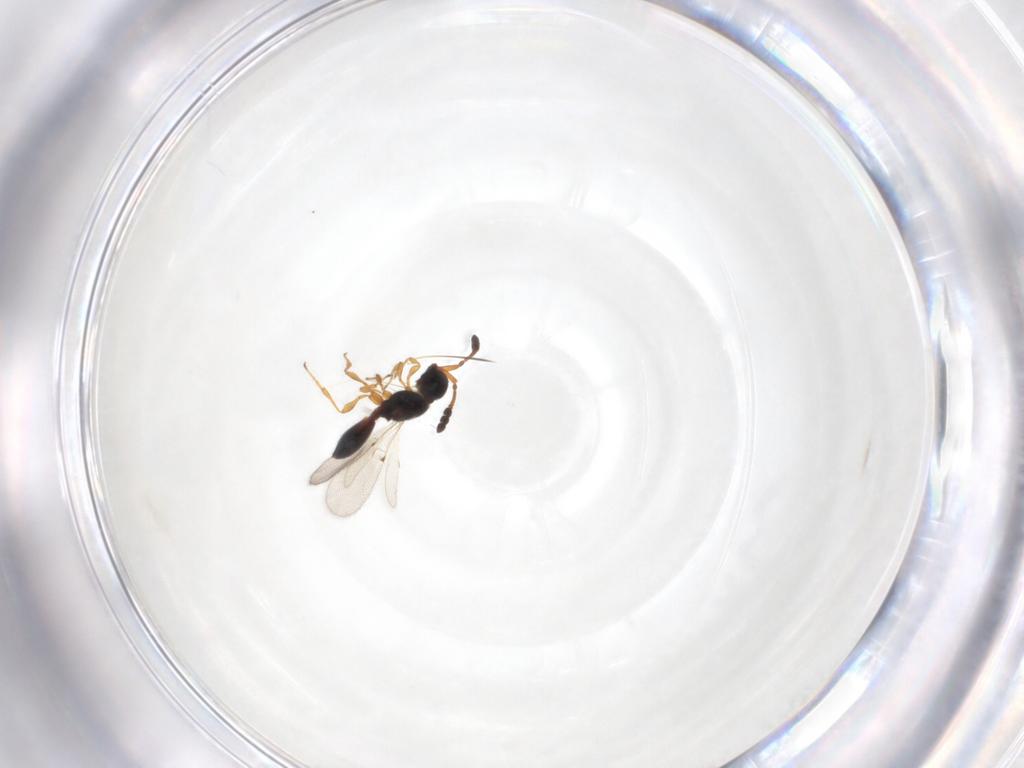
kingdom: Animalia
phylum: Arthropoda
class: Insecta
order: Hymenoptera
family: Diapriidae
